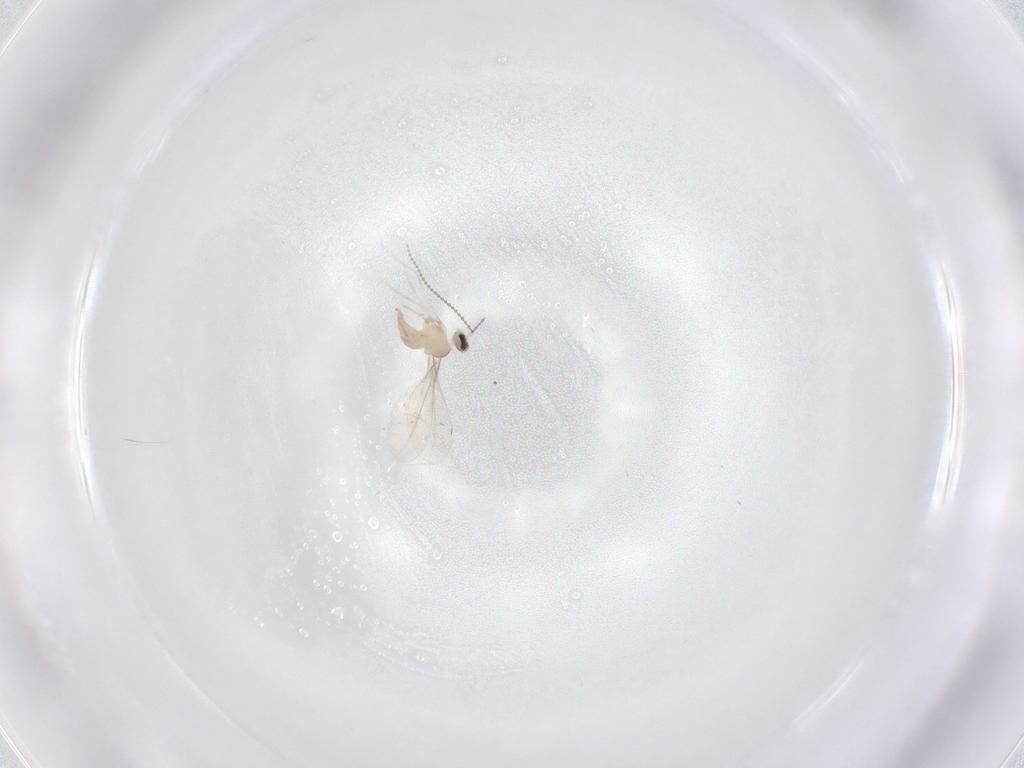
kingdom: Animalia
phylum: Arthropoda
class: Insecta
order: Diptera
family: Cecidomyiidae
